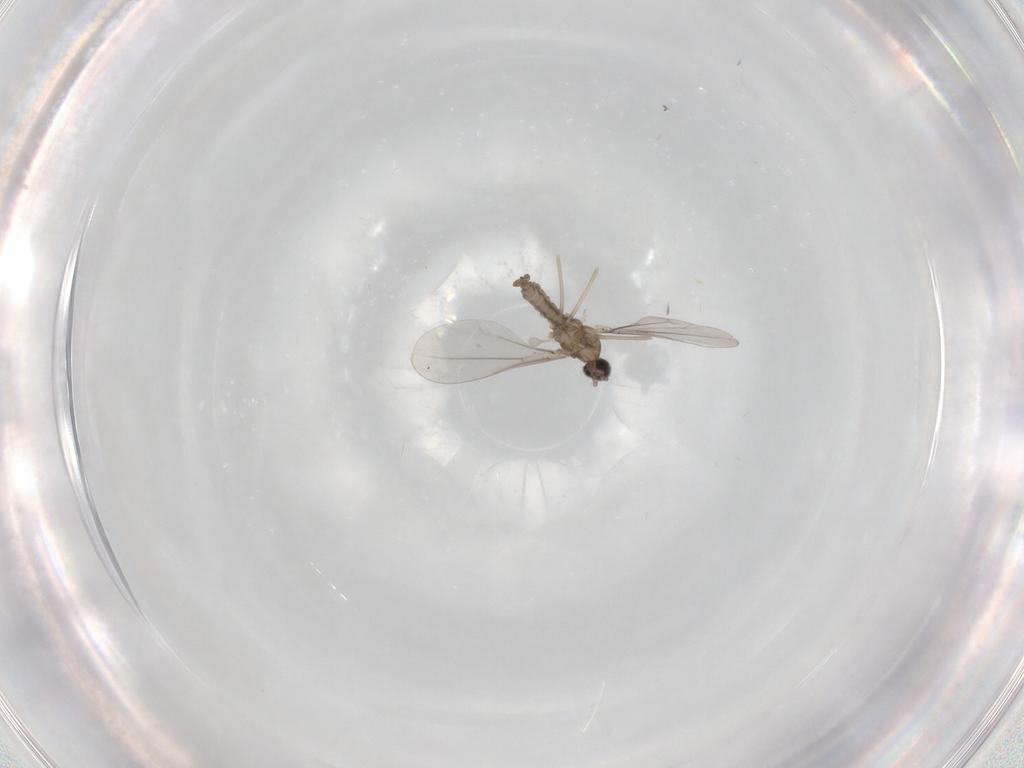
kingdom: Animalia
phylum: Arthropoda
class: Insecta
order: Diptera
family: Cecidomyiidae
